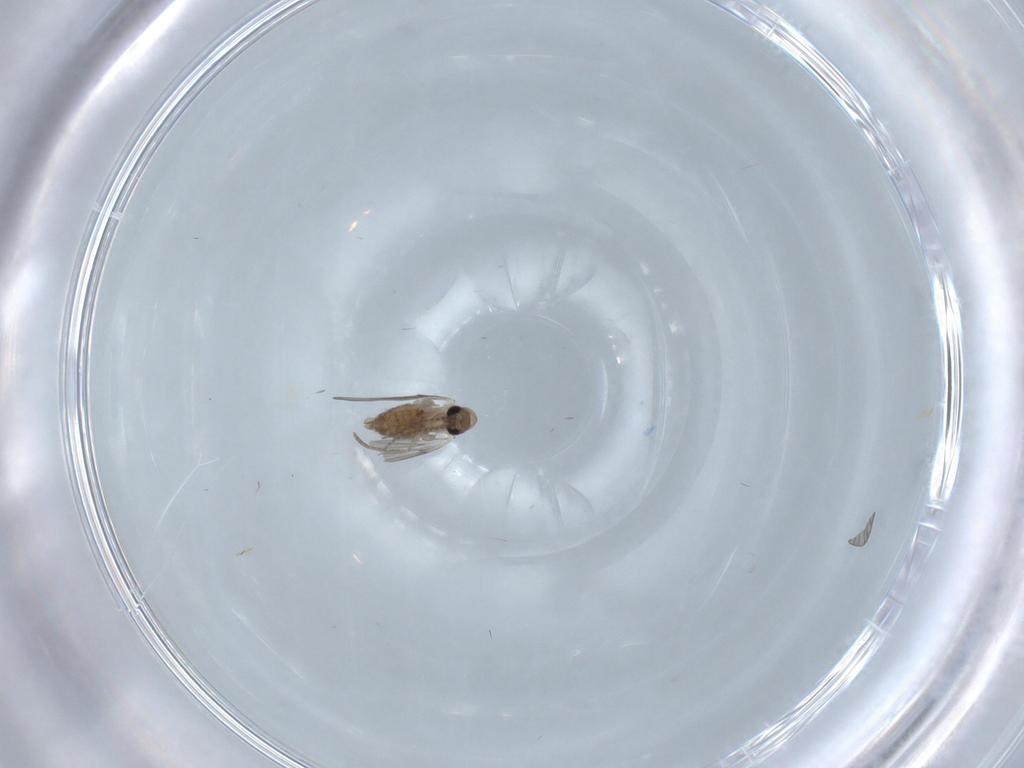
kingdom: Animalia
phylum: Arthropoda
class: Insecta
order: Diptera
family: Psychodidae
